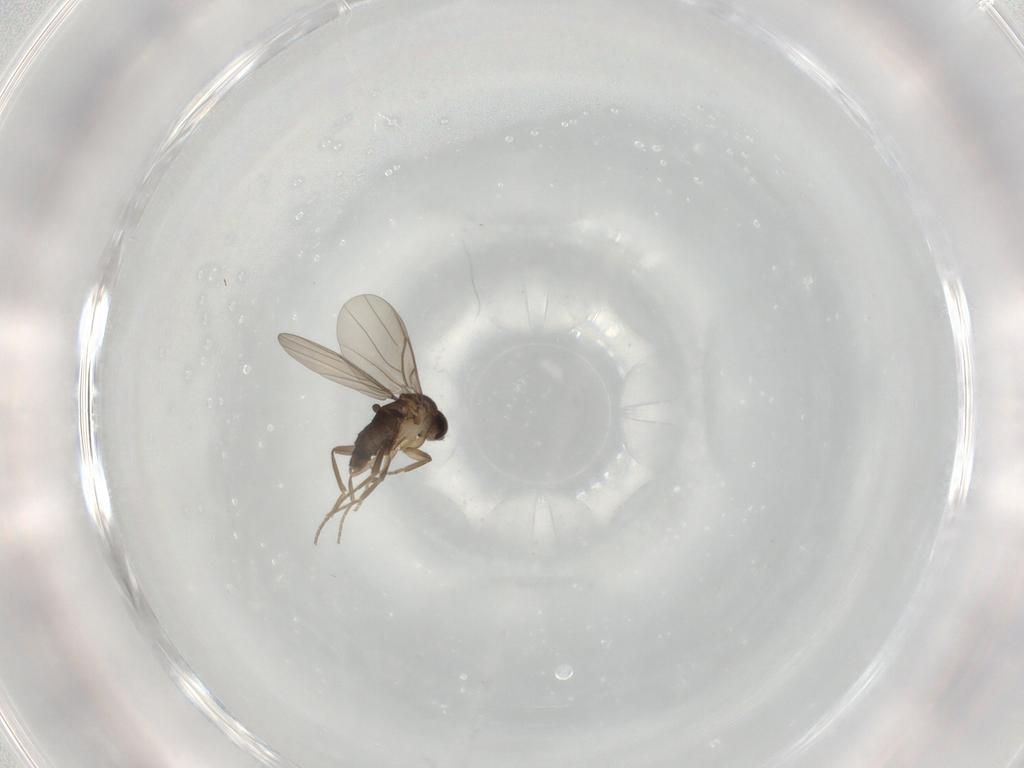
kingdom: Animalia
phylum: Arthropoda
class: Insecta
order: Diptera
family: Phoridae
